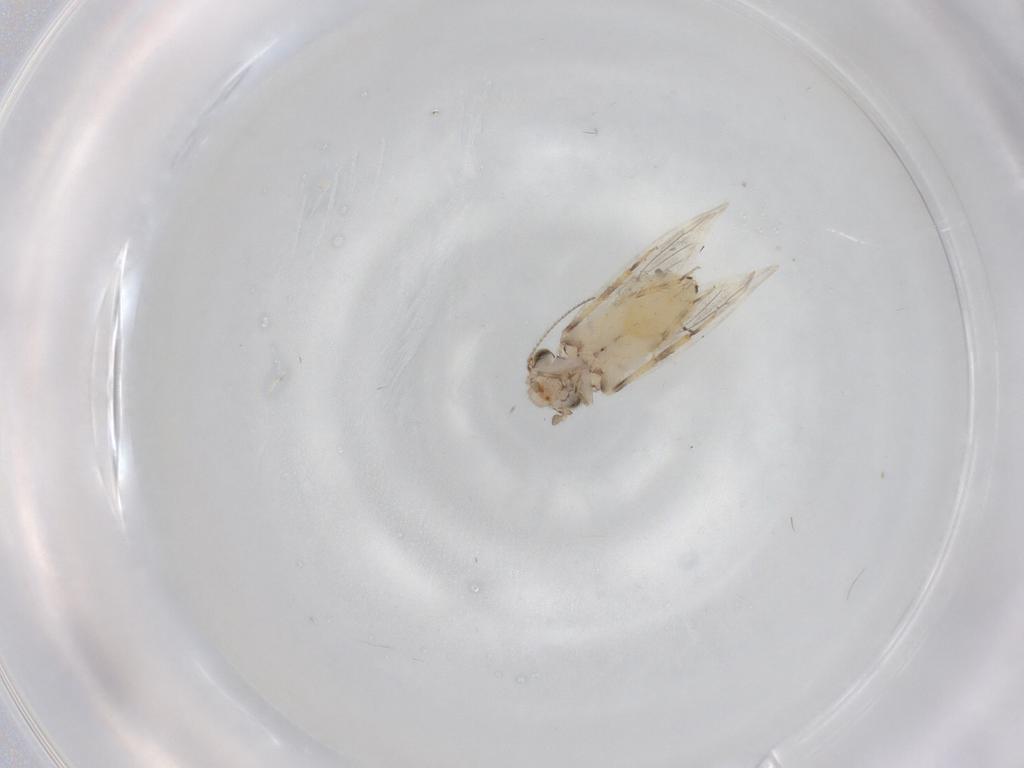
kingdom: Animalia
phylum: Arthropoda
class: Insecta
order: Psocodea
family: Lepidopsocidae
